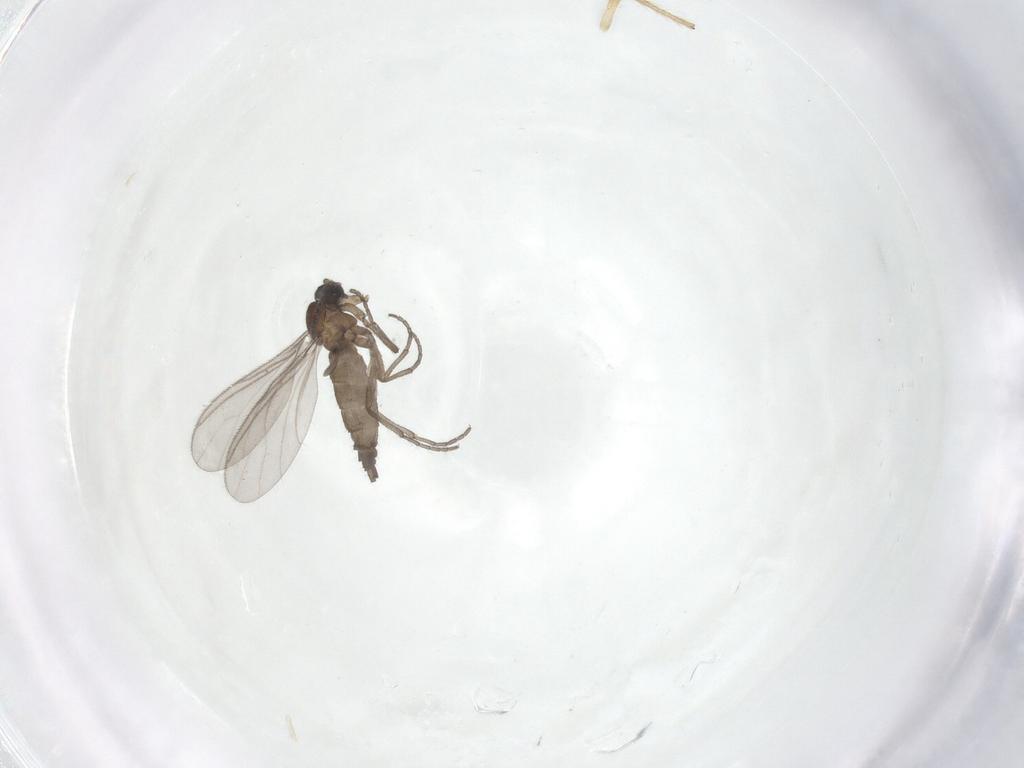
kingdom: Animalia
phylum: Arthropoda
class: Insecta
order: Diptera
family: Sciaridae
